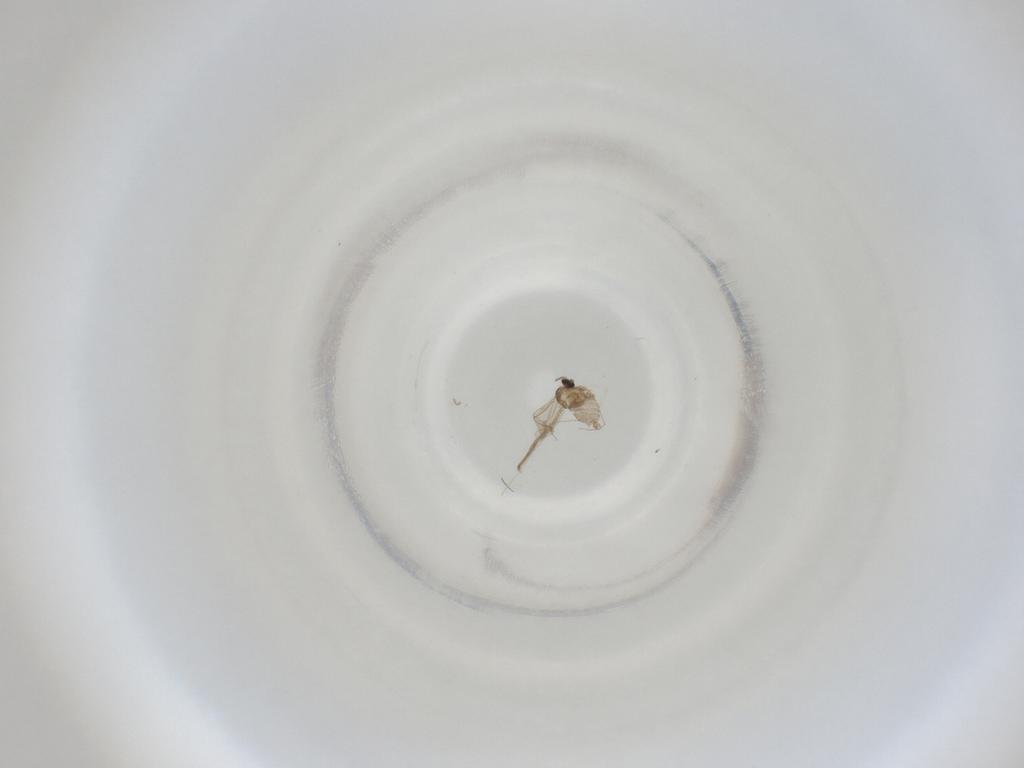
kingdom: Animalia
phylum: Arthropoda
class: Insecta
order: Diptera
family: Cecidomyiidae
